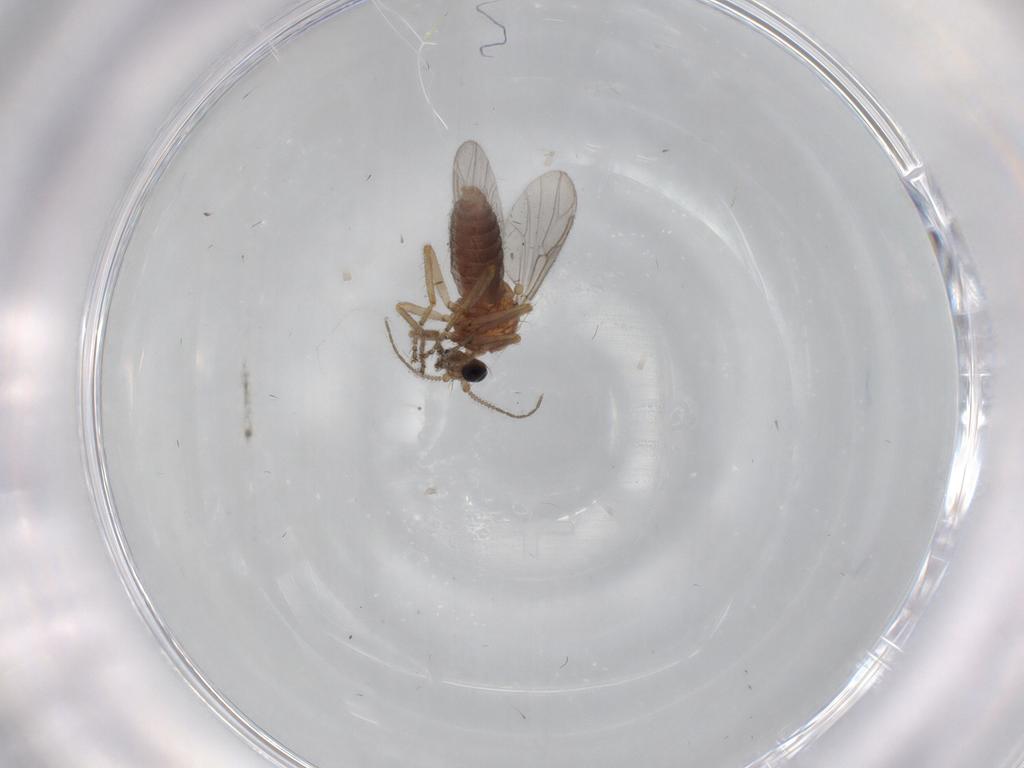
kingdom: Animalia
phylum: Arthropoda
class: Insecta
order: Diptera
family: Ceratopogonidae
